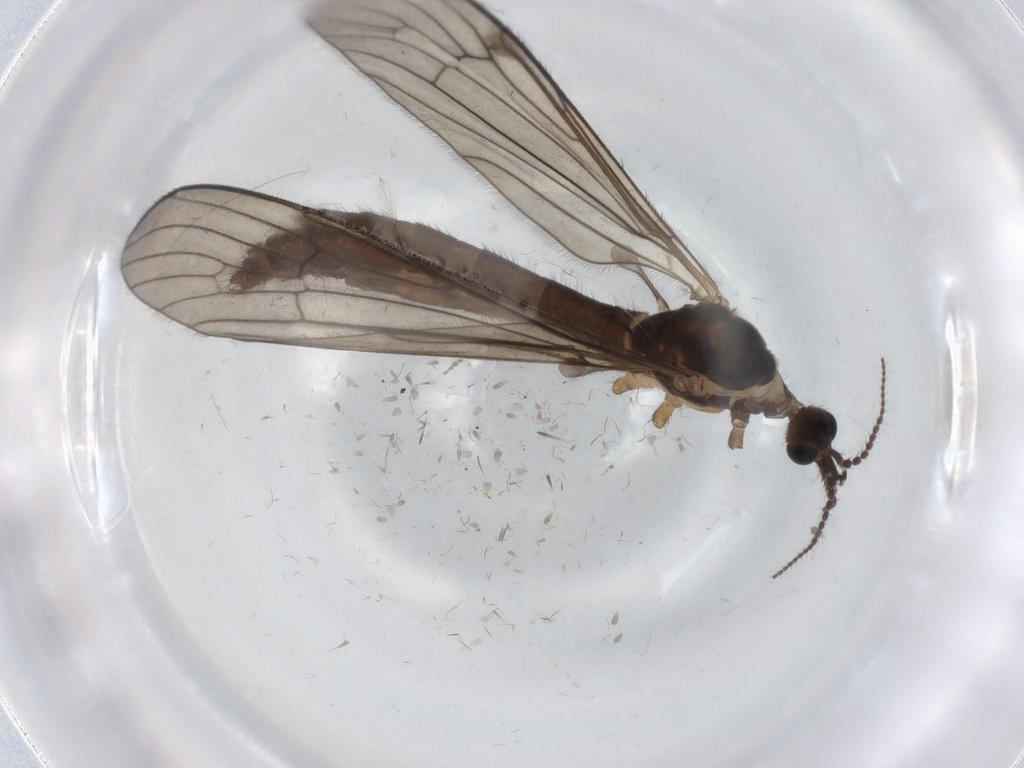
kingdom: Animalia
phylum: Arthropoda
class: Insecta
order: Diptera
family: Limoniidae
